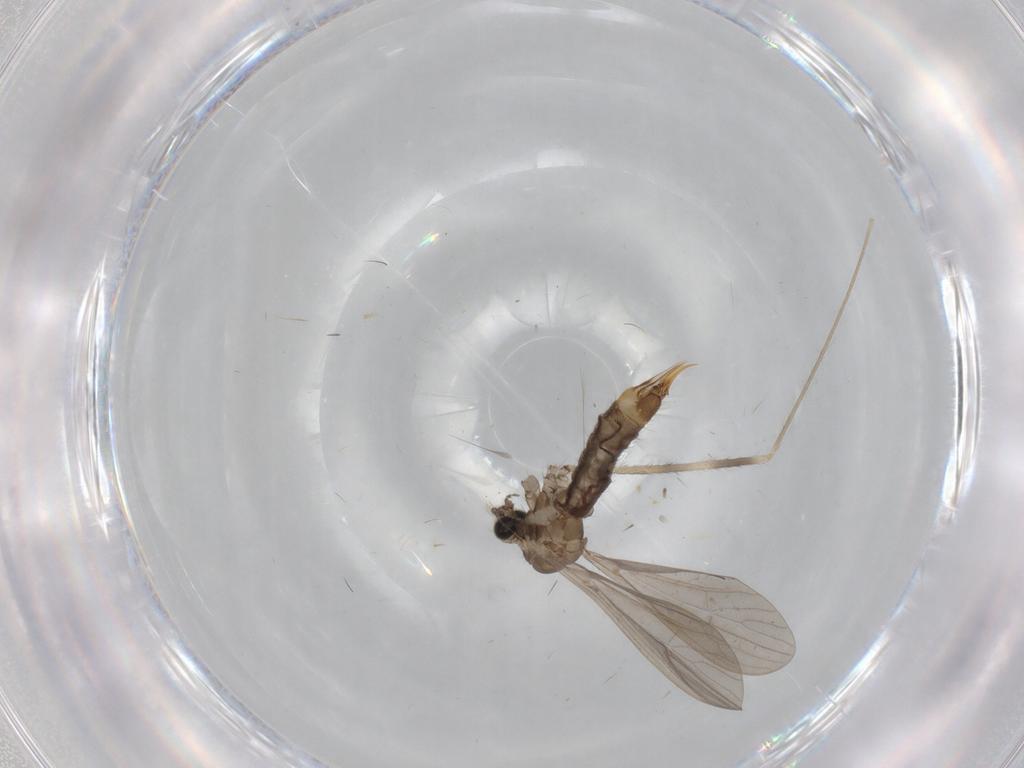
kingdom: Animalia
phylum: Arthropoda
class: Insecta
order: Diptera
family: Limoniidae
